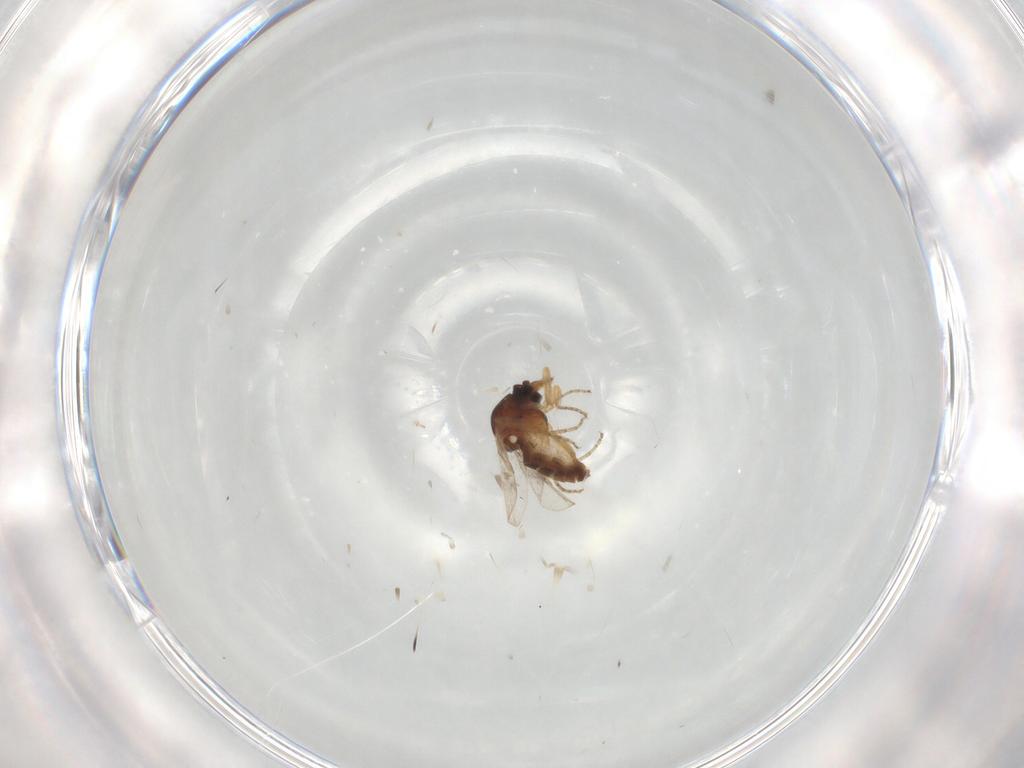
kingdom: Animalia
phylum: Arthropoda
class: Insecta
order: Diptera
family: Ceratopogonidae
